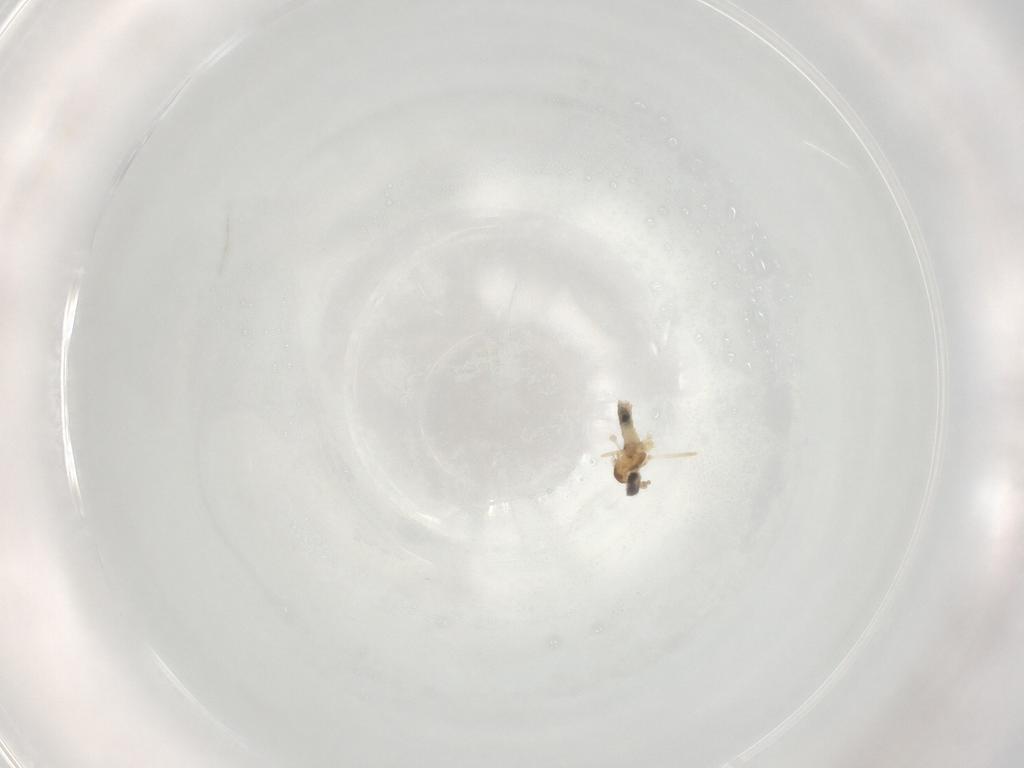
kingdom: Animalia
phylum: Arthropoda
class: Insecta
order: Diptera
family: Cecidomyiidae
